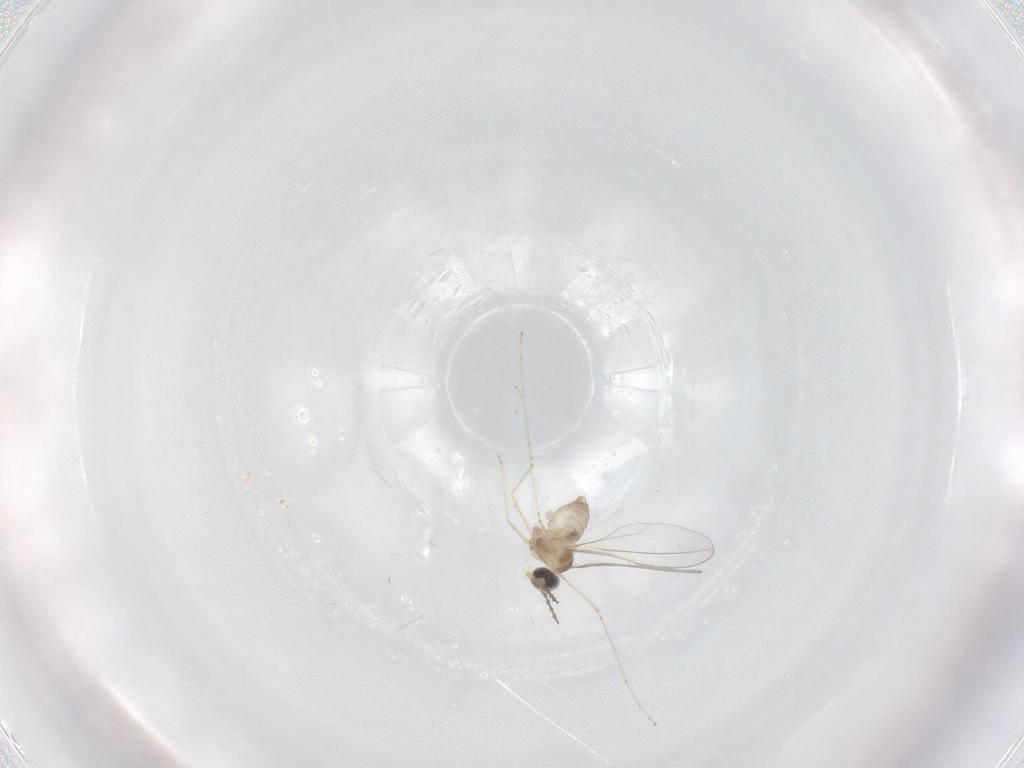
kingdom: Animalia
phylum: Arthropoda
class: Insecta
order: Diptera
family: Cecidomyiidae
